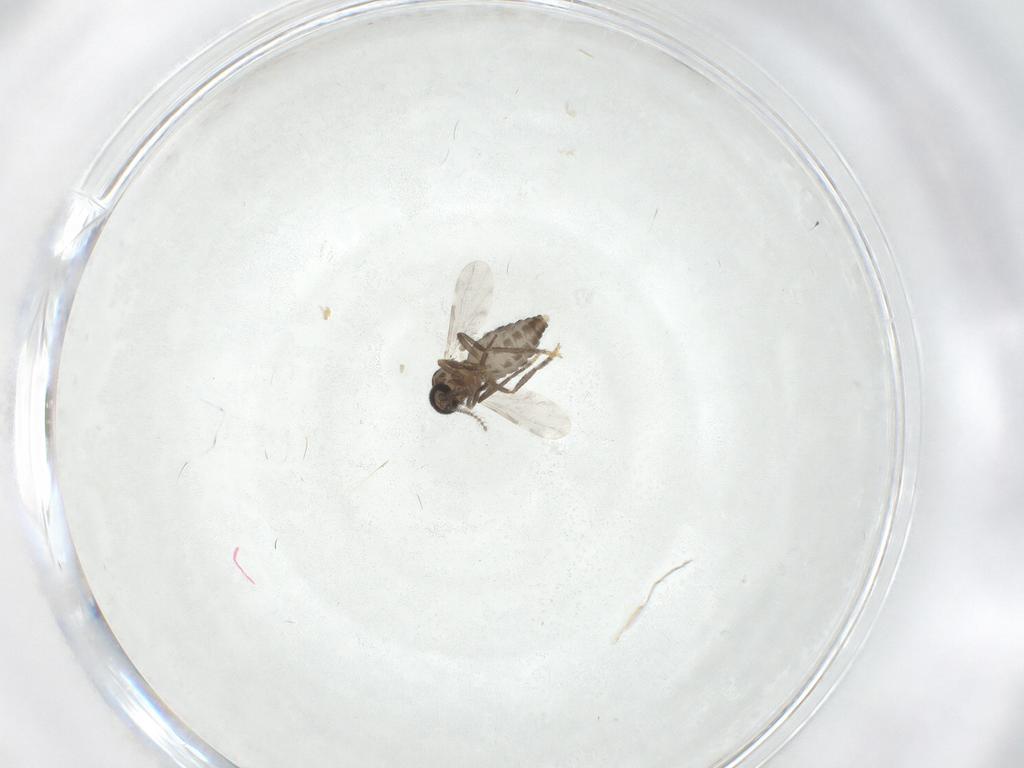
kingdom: Animalia
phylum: Arthropoda
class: Insecta
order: Diptera
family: Ceratopogonidae
